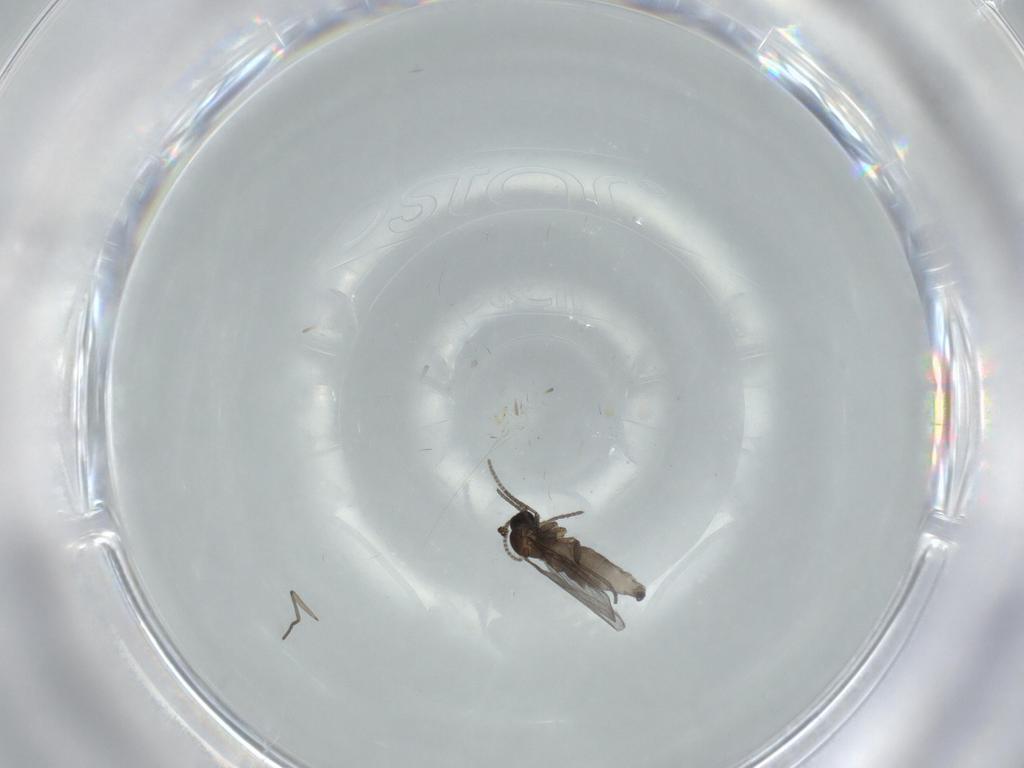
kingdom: Animalia
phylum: Arthropoda
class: Insecta
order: Diptera
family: Cecidomyiidae
